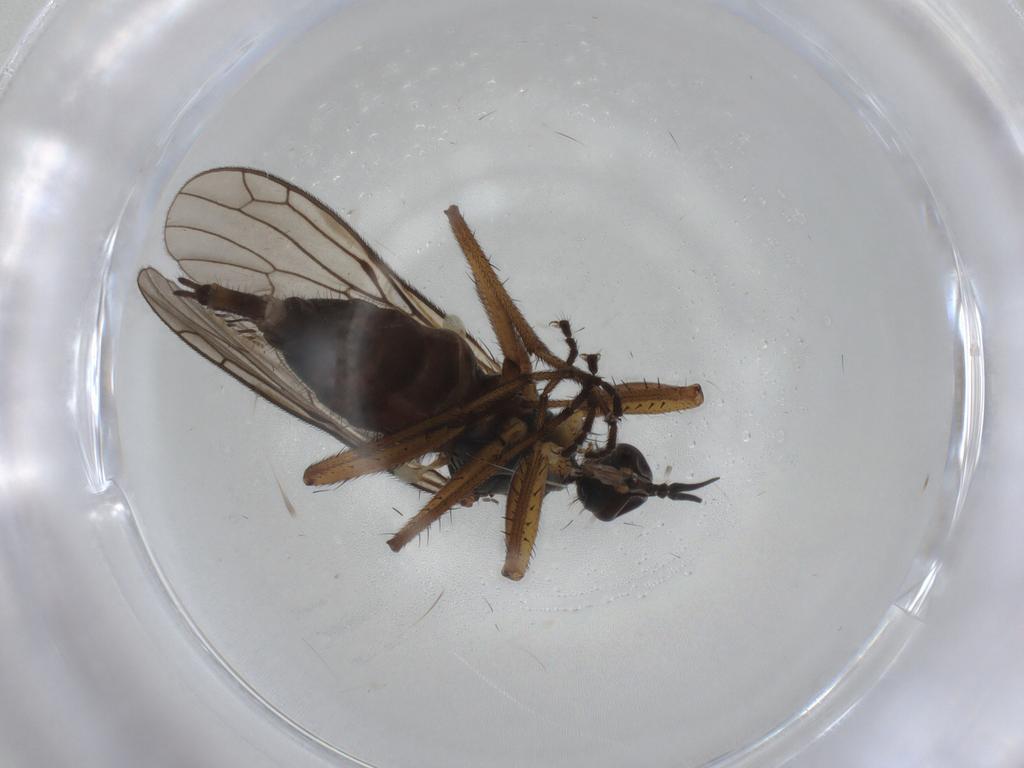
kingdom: Animalia
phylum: Arthropoda
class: Insecta
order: Diptera
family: Ceratopogonidae
